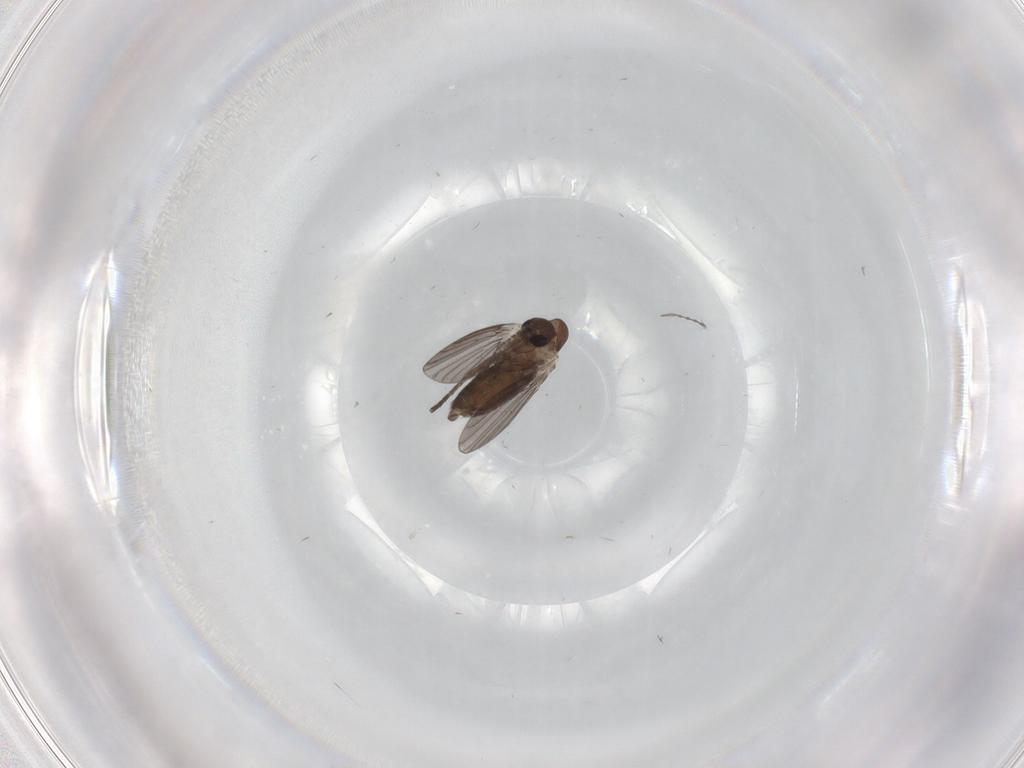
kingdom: Animalia
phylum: Arthropoda
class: Insecta
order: Diptera
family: Chironomidae
